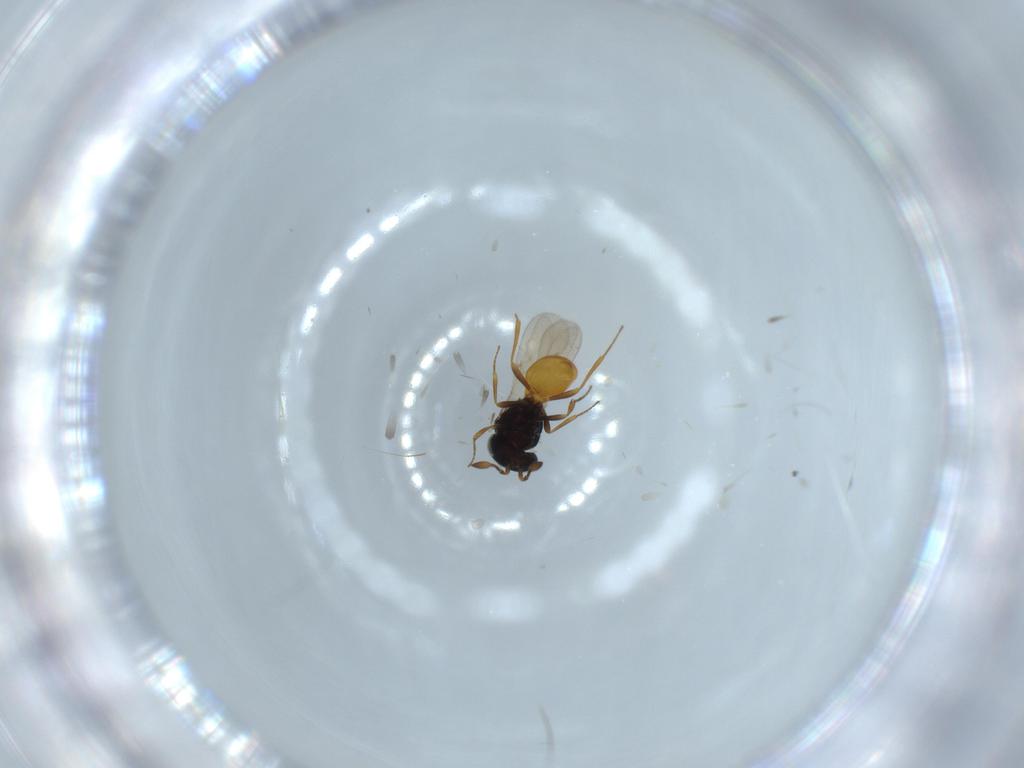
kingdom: Animalia
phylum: Arthropoda
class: Insecta
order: Hymenoptera
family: Scelionidae
